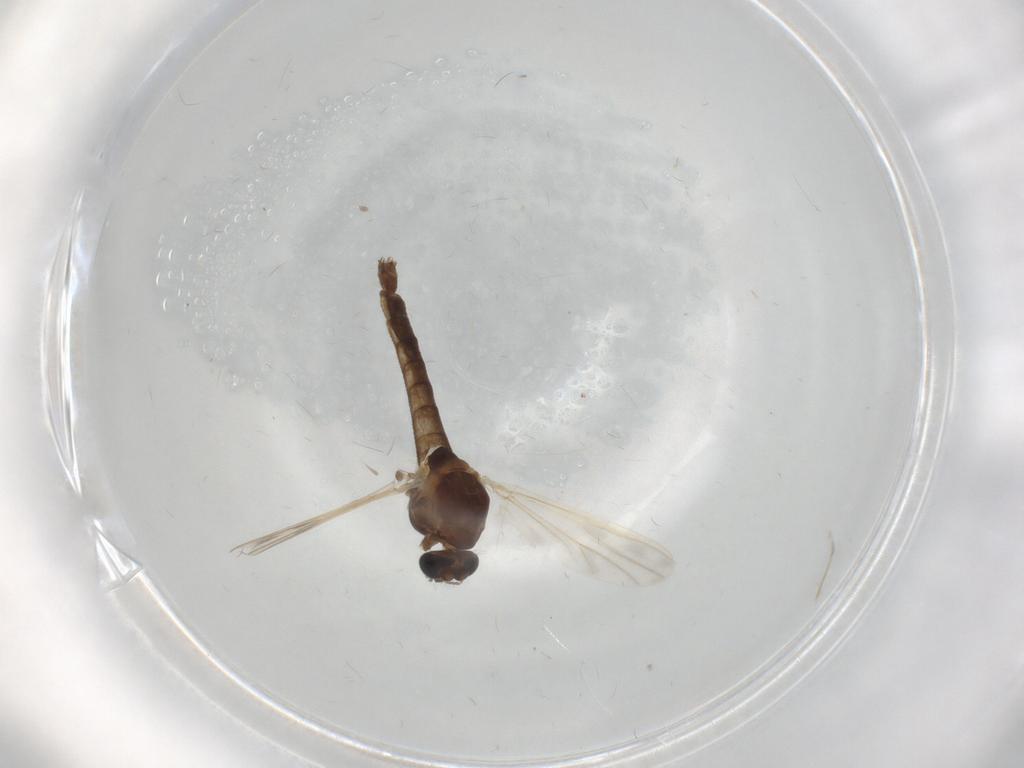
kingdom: Animalia
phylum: Arthropoda
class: Insecta
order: Diptera
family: Chironomidae
